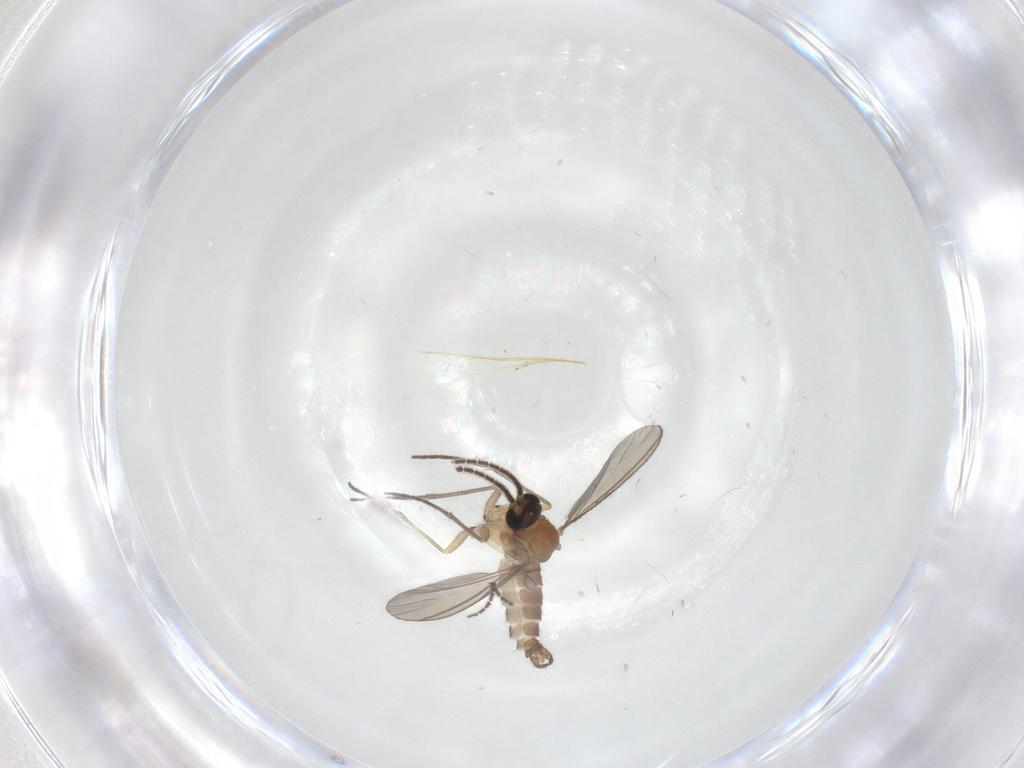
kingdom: Animalia
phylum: Arthropoda
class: Insecta
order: Diptera
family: Sciaridae
